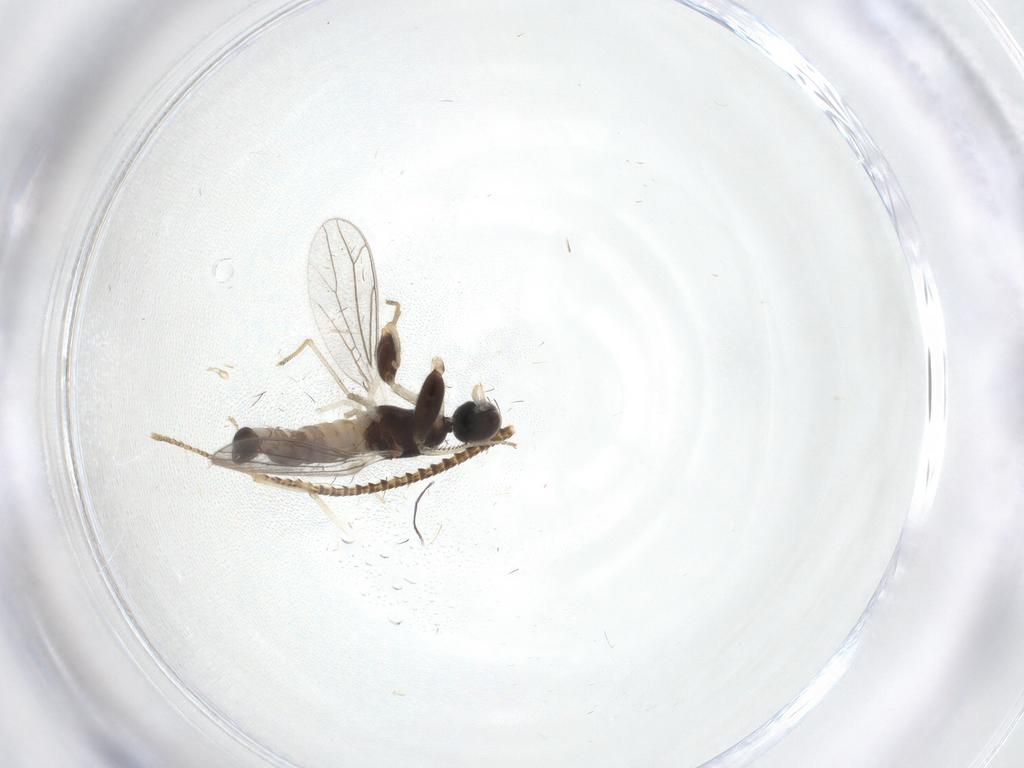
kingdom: Animalia
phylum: Arthropoda
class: Insecta
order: Diptera
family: Empididae
